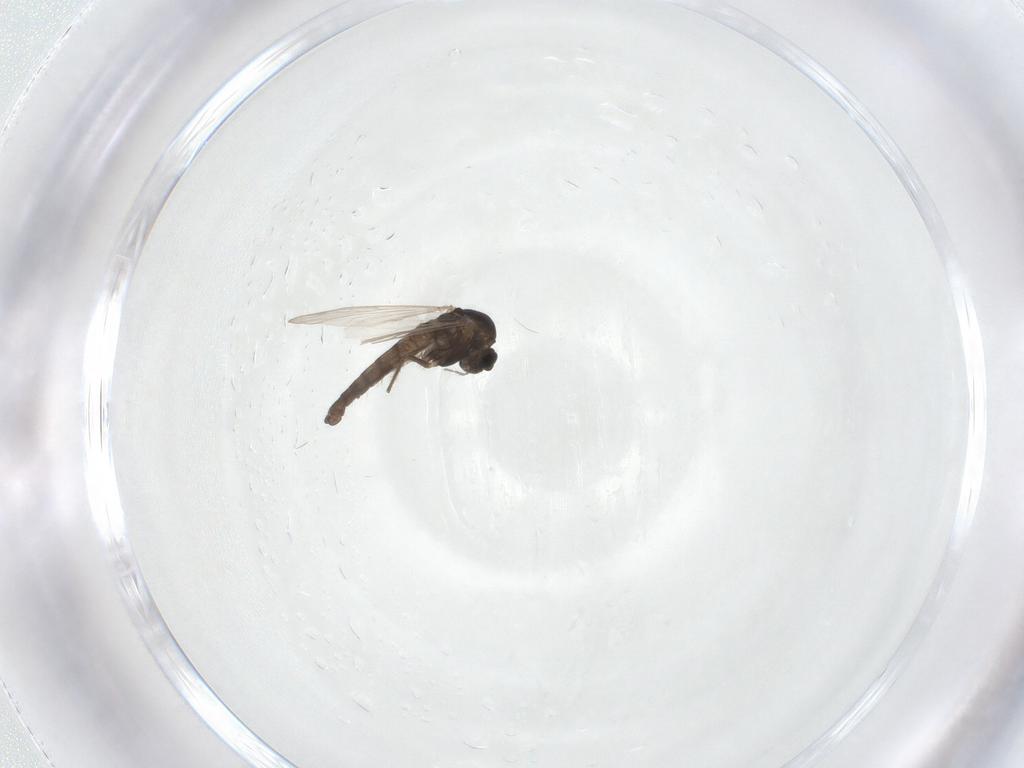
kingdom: Animalia
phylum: Arthropoda
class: Insecta
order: Diptera
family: Chironomidae
